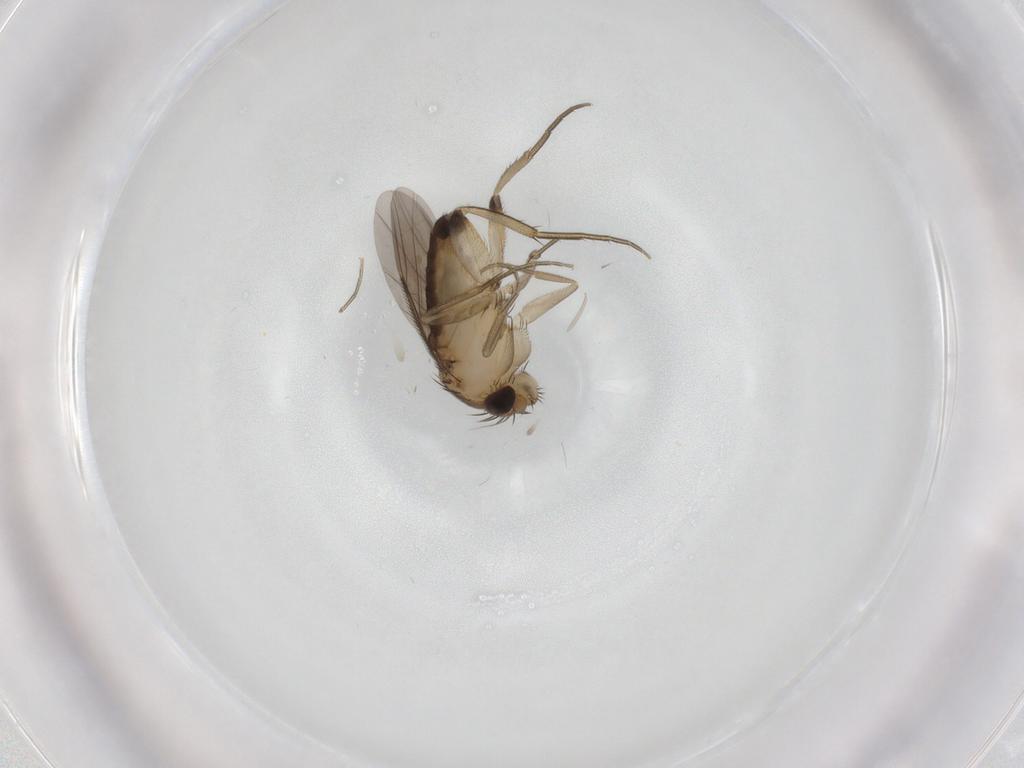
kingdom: Animalia
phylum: Arthropoda
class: Insecta
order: Diptera
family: Phoridae
